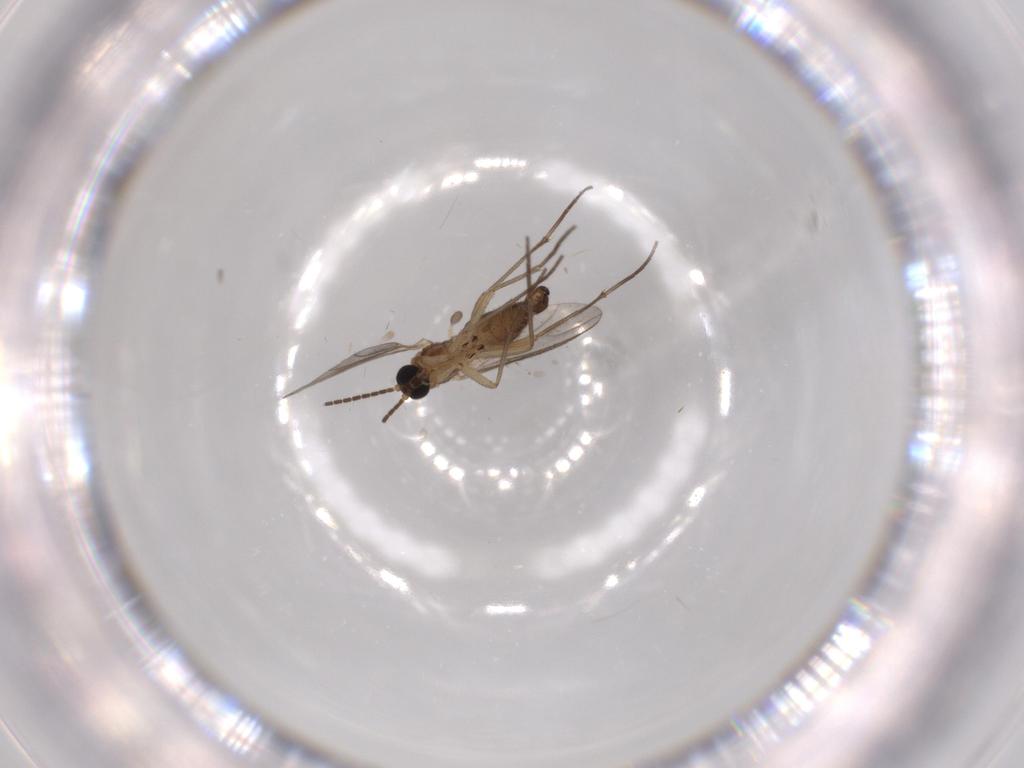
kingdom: Animalia
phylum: Arthropoda
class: Insecta
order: Diptera
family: Sciaridae
